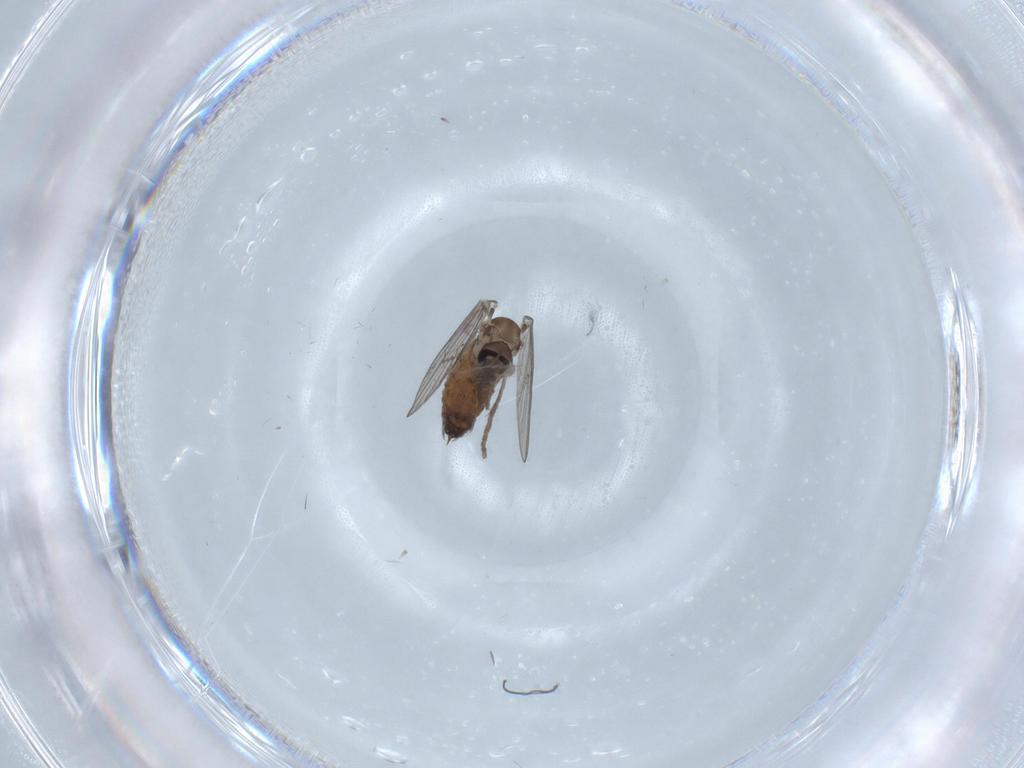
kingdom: Animalia
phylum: Arthropoda
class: Insecta
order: Diptera
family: Psychodidae
